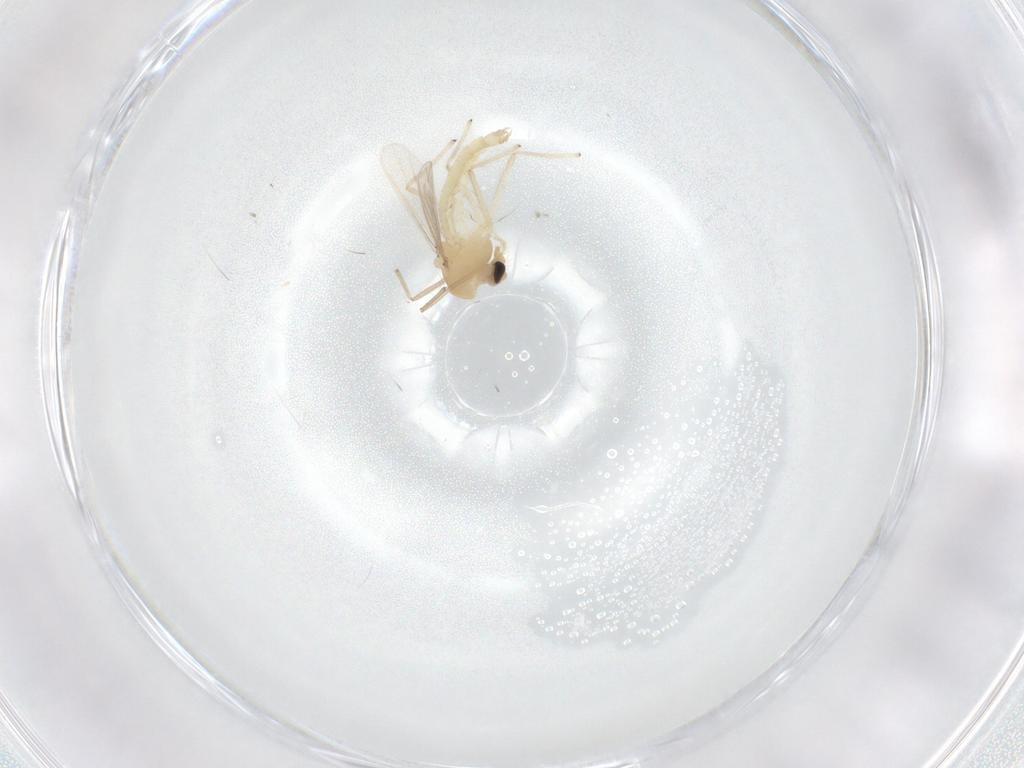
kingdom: Animalia
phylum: Arthropoda
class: Insecta
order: Diptera
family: Chironomidae
